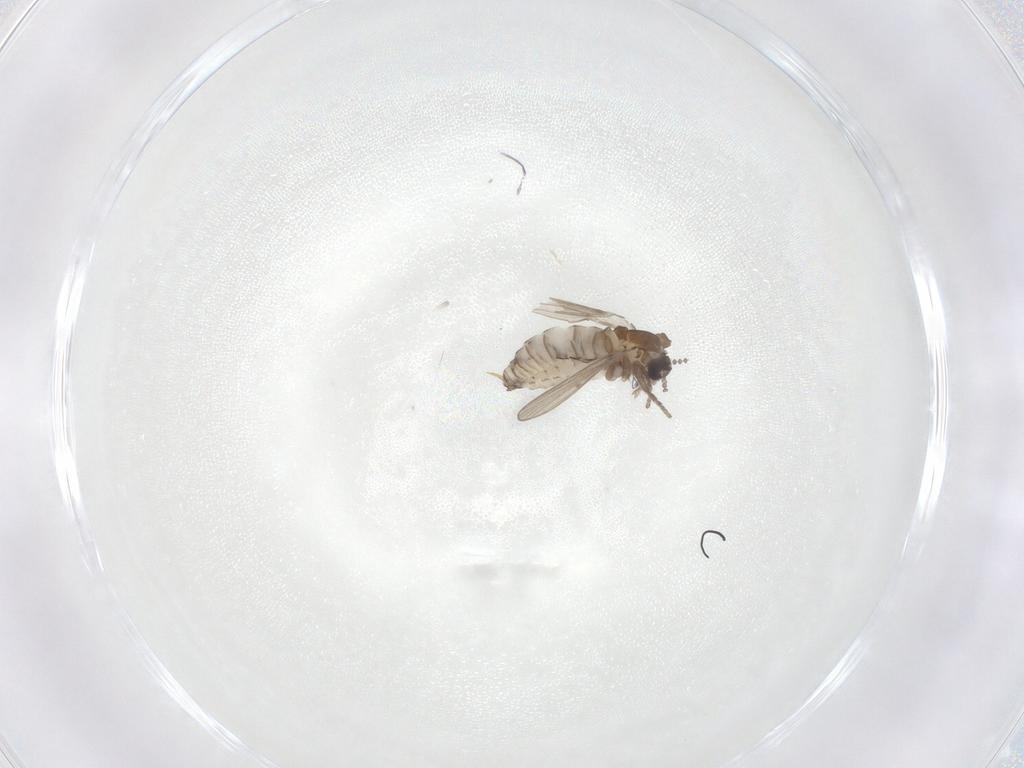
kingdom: Animalia
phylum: Arthropoda
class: Insecta
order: Diptera
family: Psychodidae
